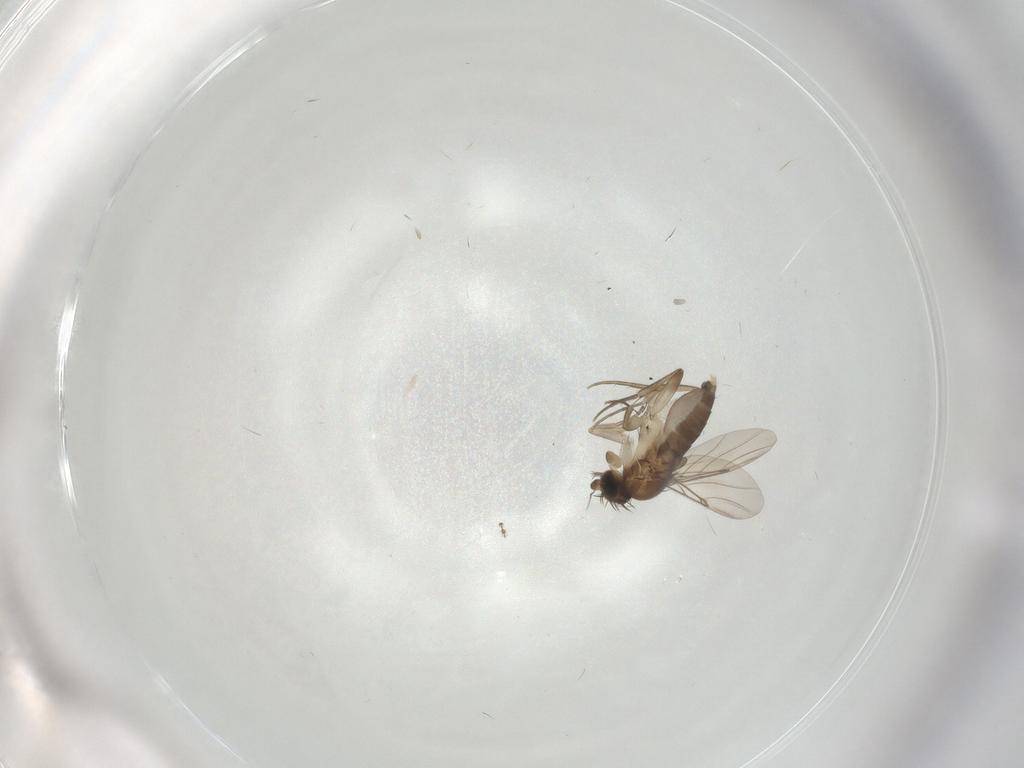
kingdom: Animalia
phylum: Arthropoda
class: Insecta
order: Diptera
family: Phoridae
